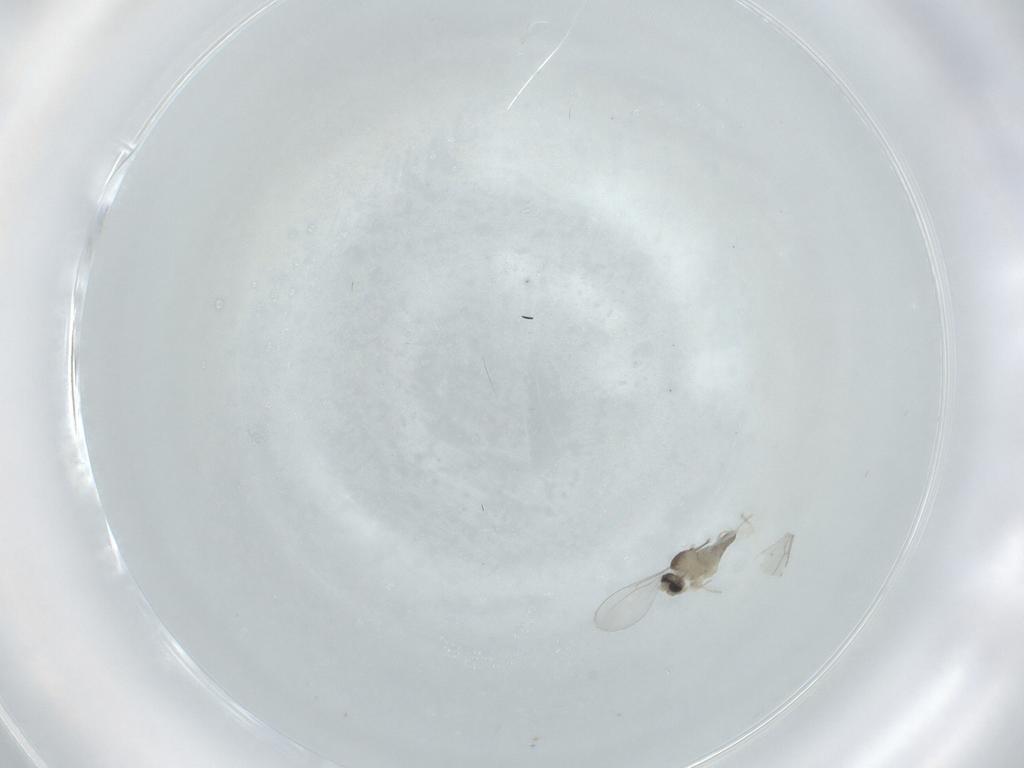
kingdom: Animalia
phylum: Arthropoda
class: Insecta
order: Diptera
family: Cecidomyiidae
